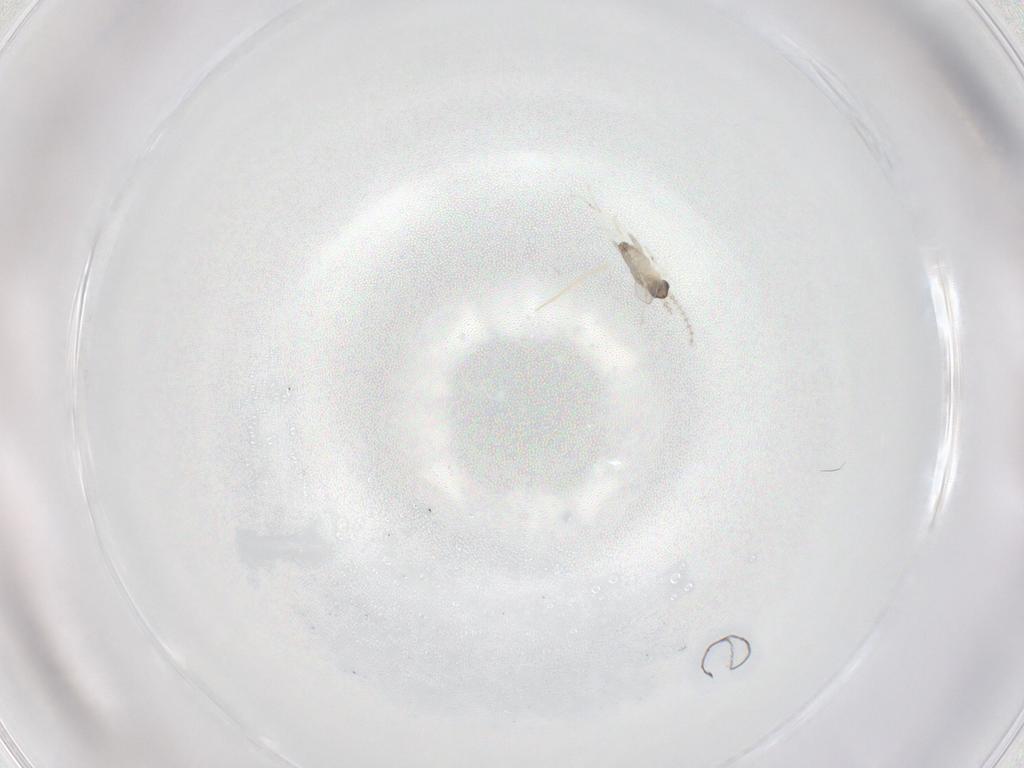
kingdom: Animalia
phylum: Arthropoda
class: Insecta
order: Diptera
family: Cecidomyiidae
